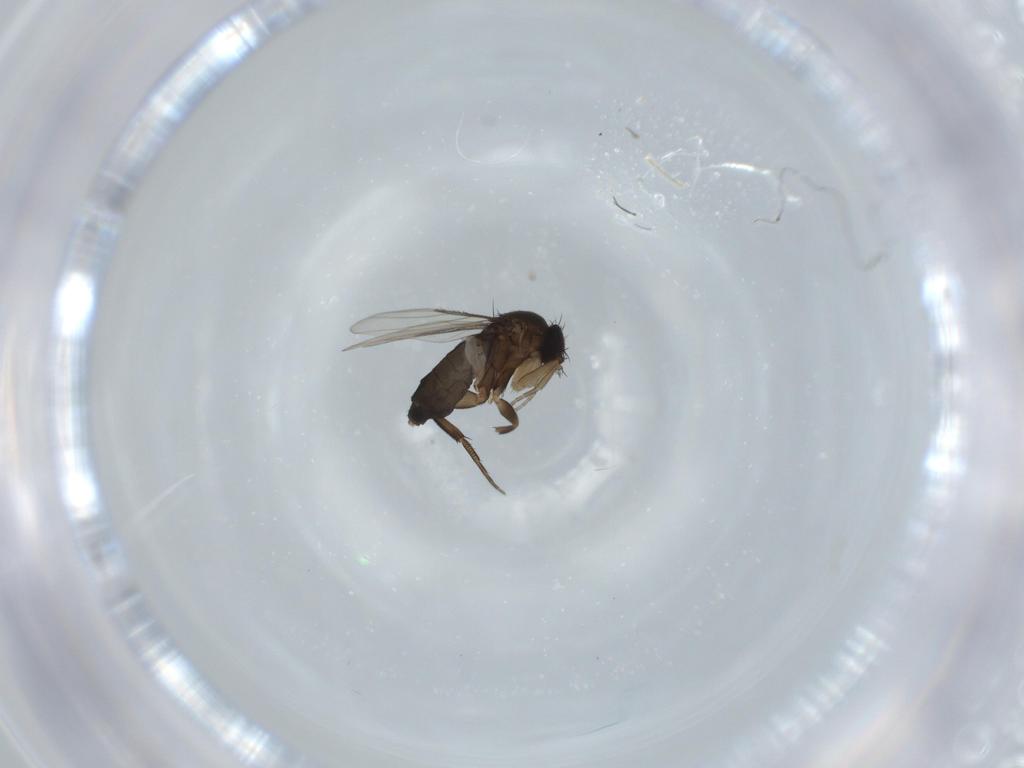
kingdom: Animalia
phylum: Arthropoda
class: Insecta
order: Diptera
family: Phoridae
